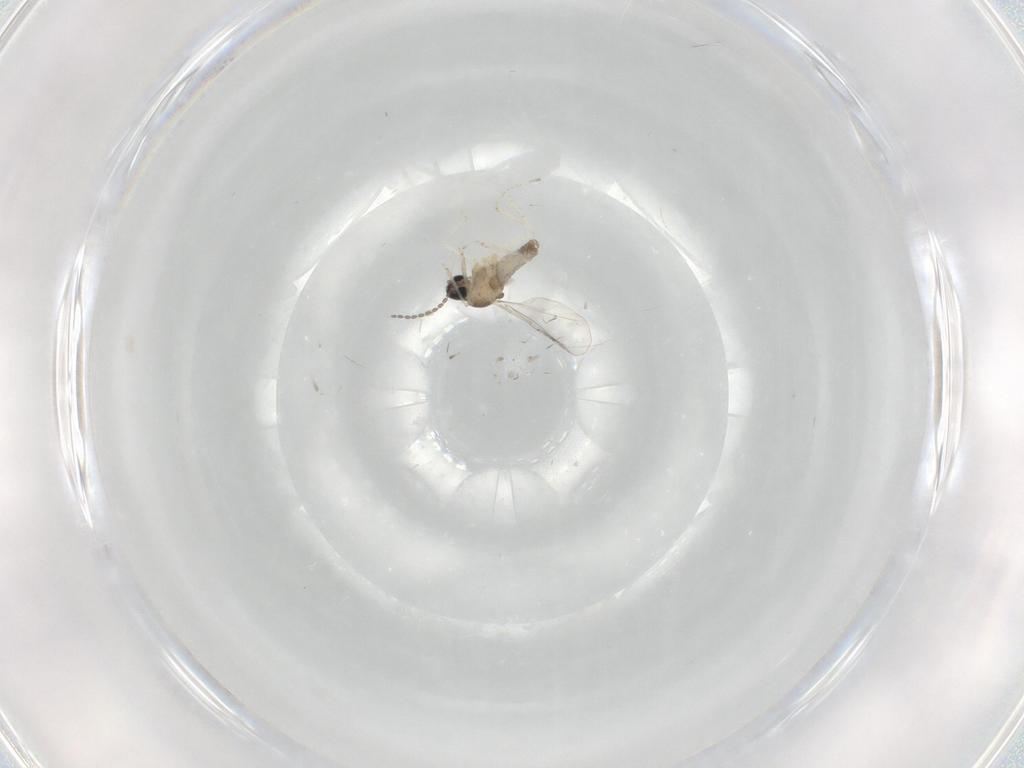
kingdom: Animalia
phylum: Arthropoda
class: Insecta
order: Diptera
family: Cecidomyiidae
